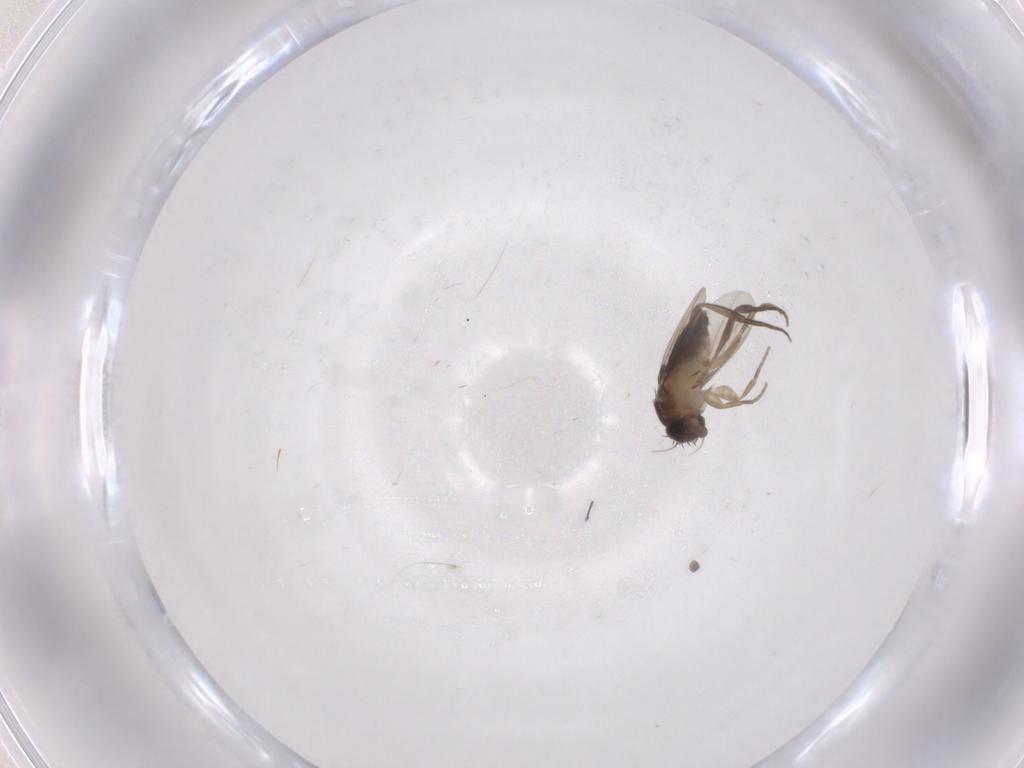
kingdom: Animalia
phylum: Arthropoda
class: Insecta
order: Diptera
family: Phoridae
